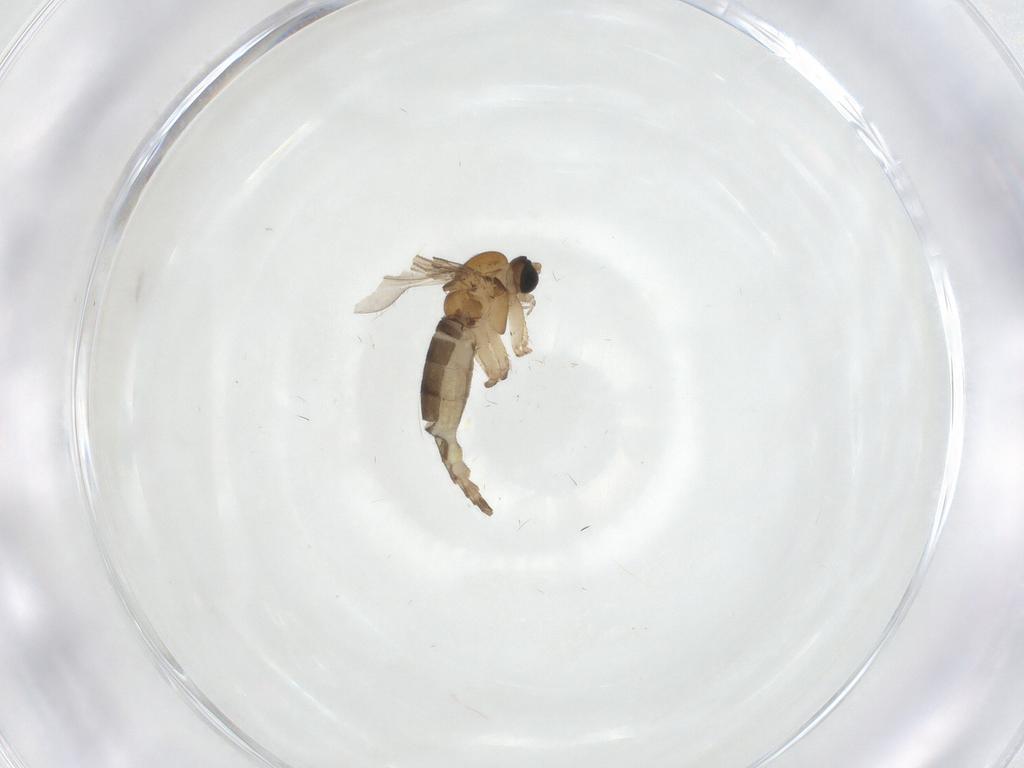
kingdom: Animalia
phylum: Arthropoda
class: Insecta
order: Diptera
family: Sciaridae
